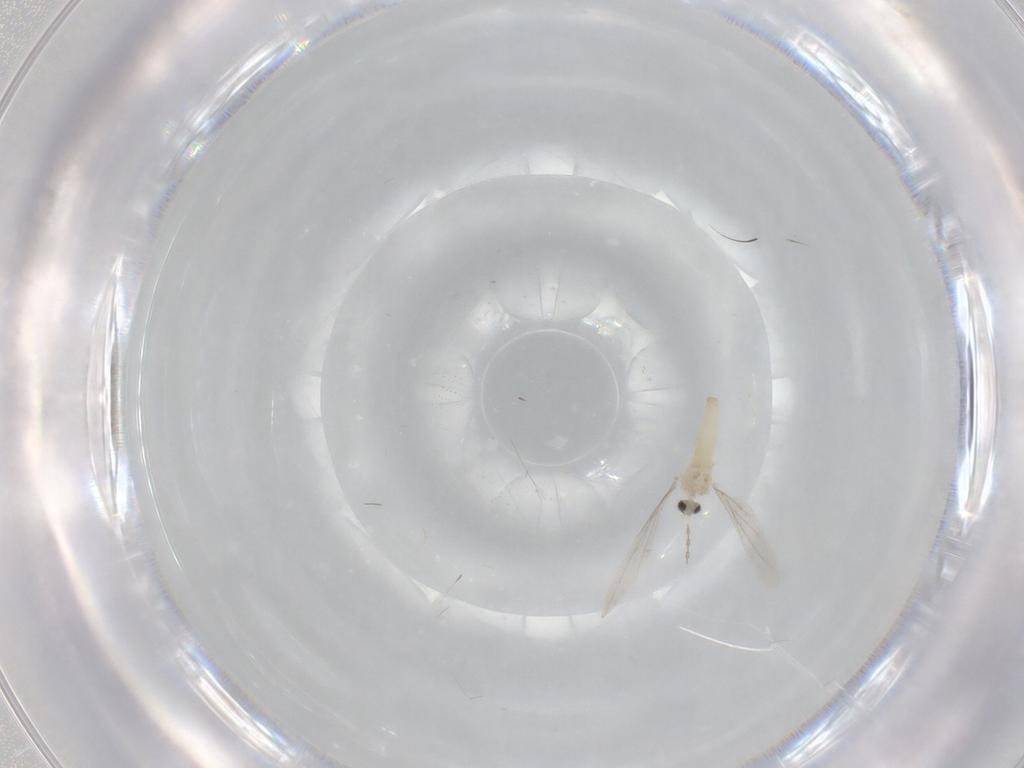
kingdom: Animalia
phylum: Arthropoda
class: Insecta
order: Diptera
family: Cecidomyiidae
